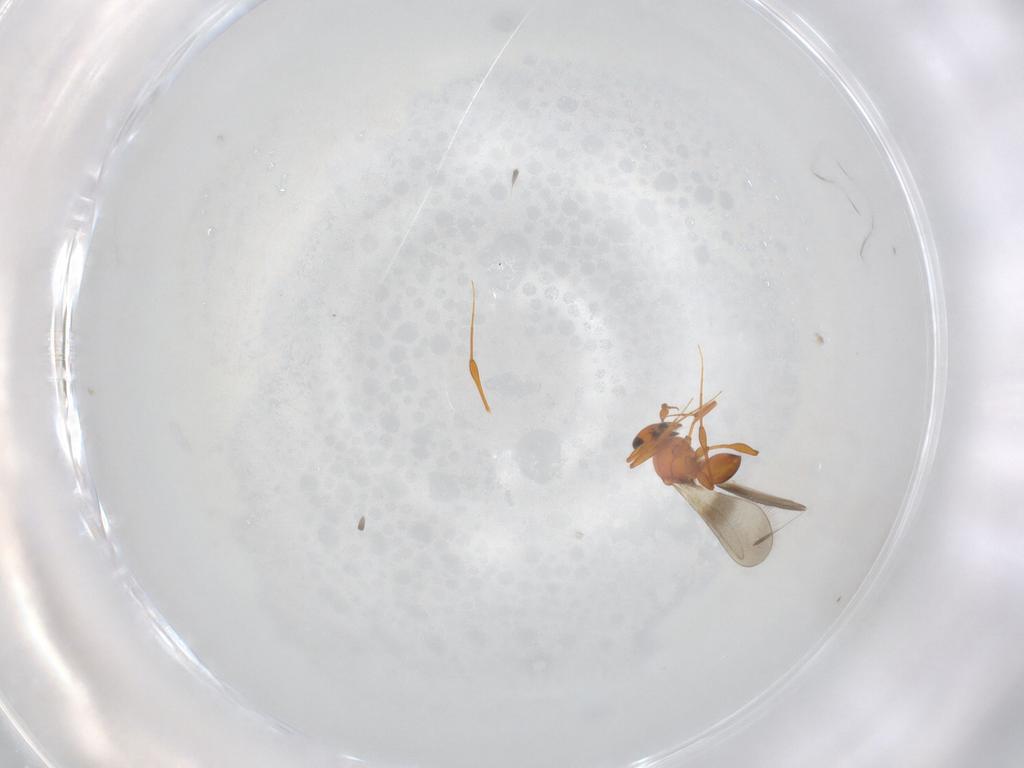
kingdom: Animalia
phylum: Arthropoda
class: Insecta
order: Hymenoptera
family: Platygastridae
